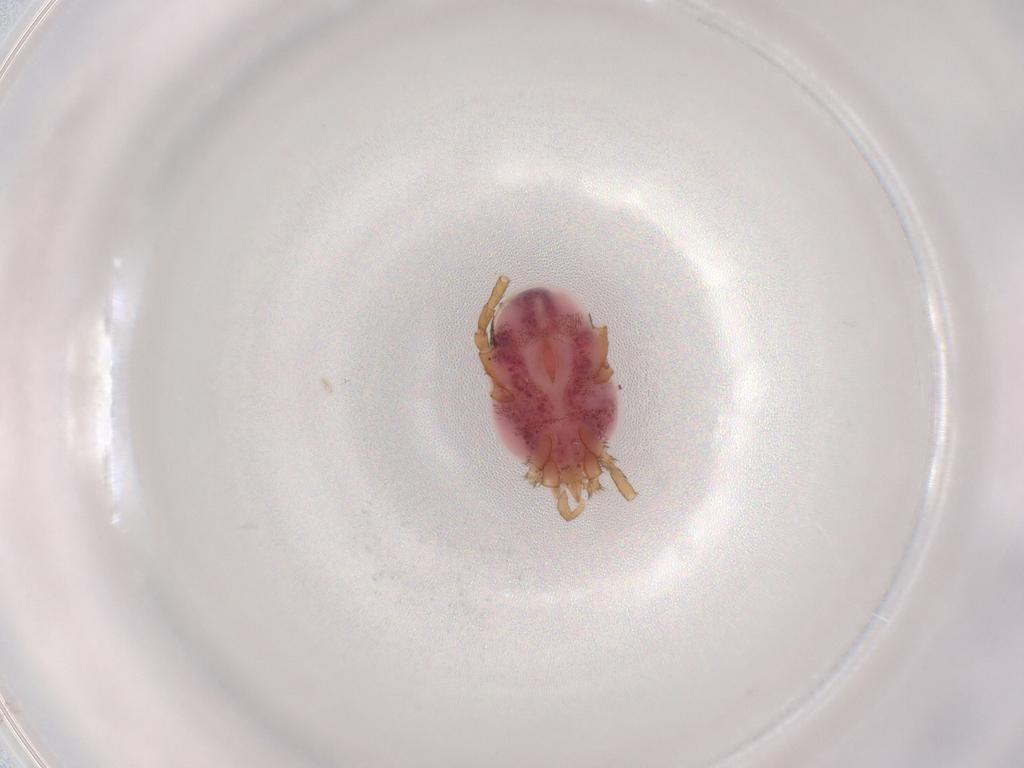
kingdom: Animalia
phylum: Arthropoda
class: Arachnida
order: Trombidiformes
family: Erythraeidae
